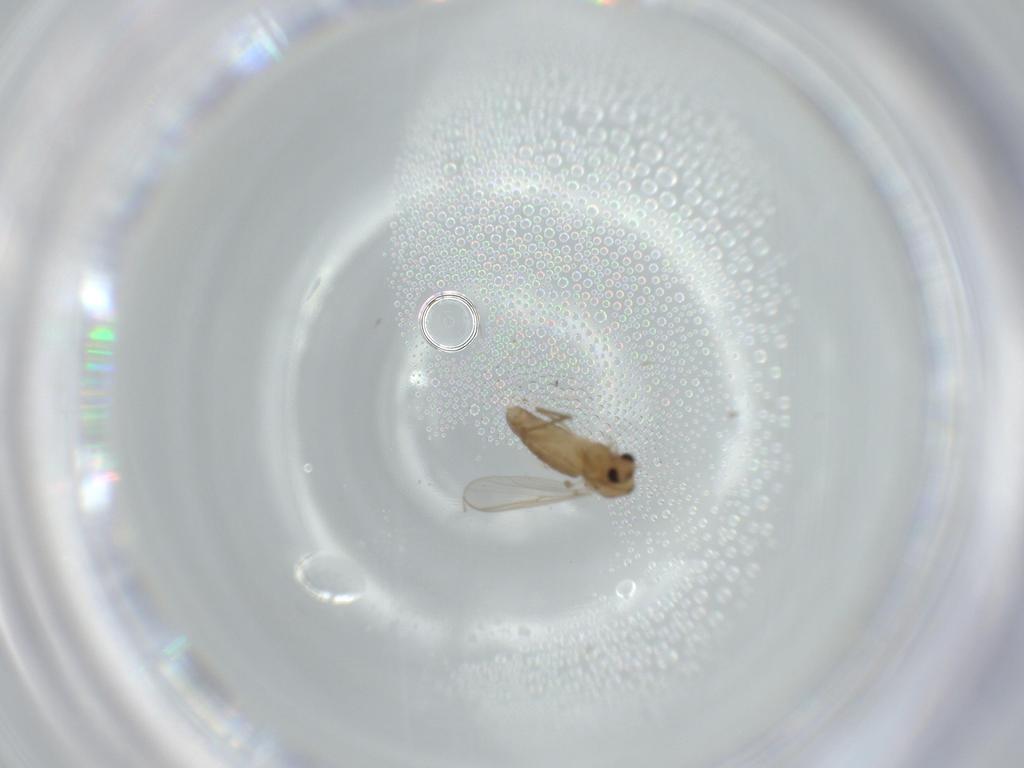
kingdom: Animalia
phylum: Arthropoda
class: Insecta
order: Diptera
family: Chironomidae
